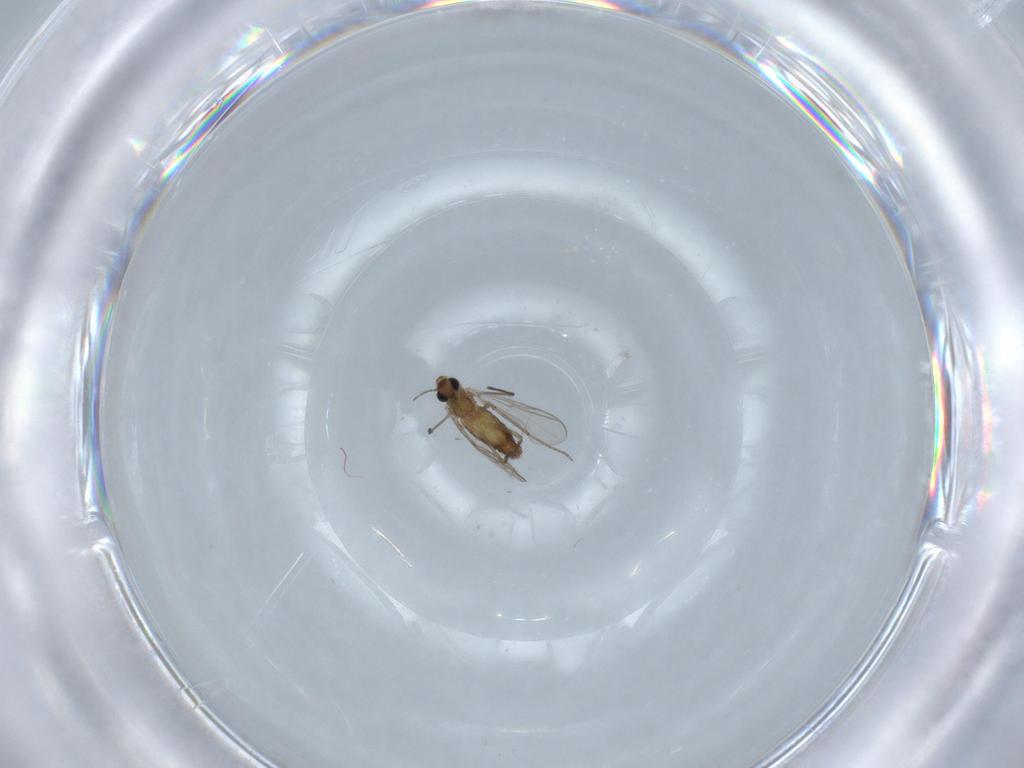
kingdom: Animalia
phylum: Arthropoda
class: Insecta
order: Diptera
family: Chironomidae
